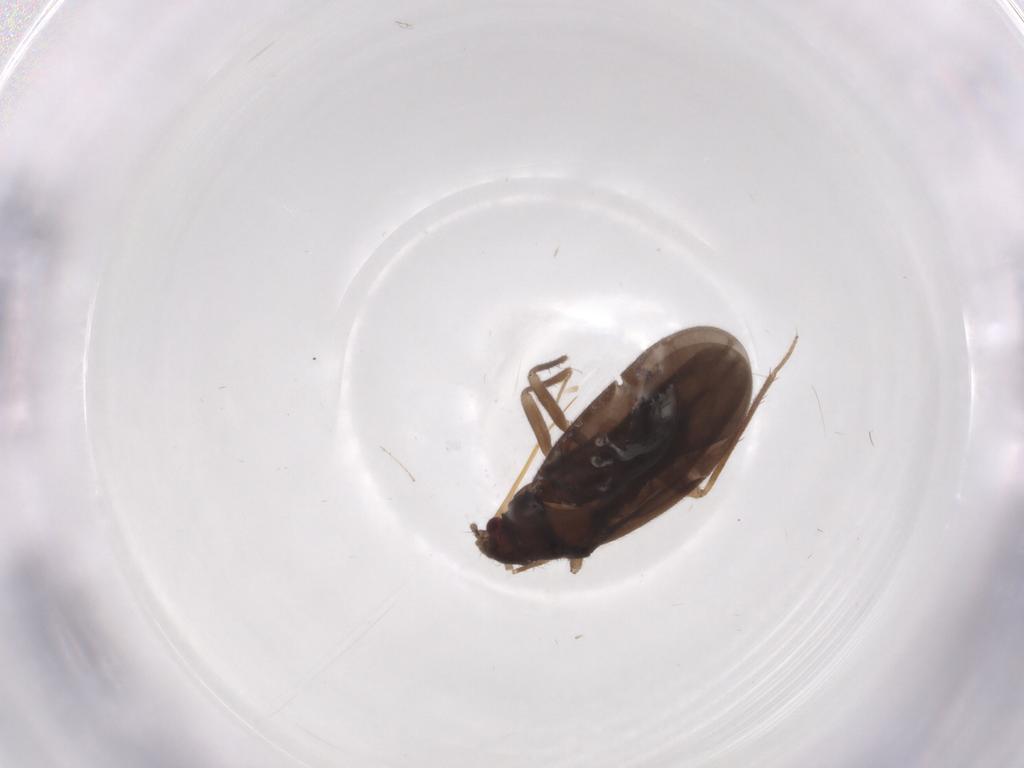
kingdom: Animalia
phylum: Arthropoda
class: Insecta
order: Hemiptera
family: Ceratocombidae
